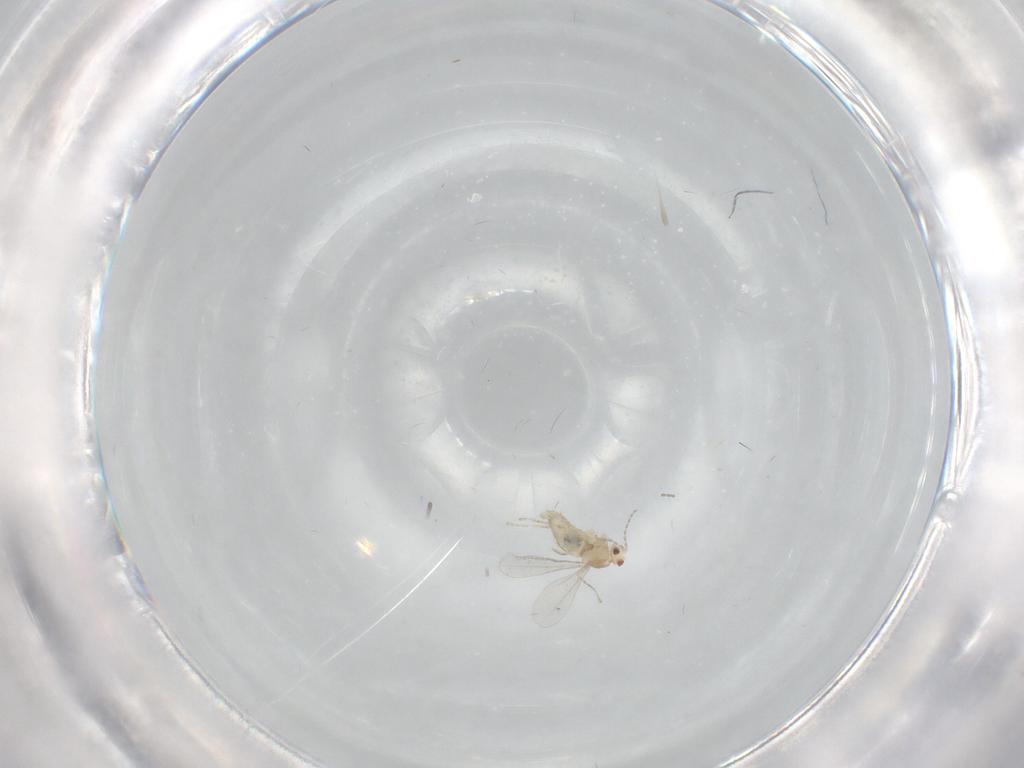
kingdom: Animalia
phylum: Arthropoda
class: Insecta
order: Diptera
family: Cecidomyiidae
